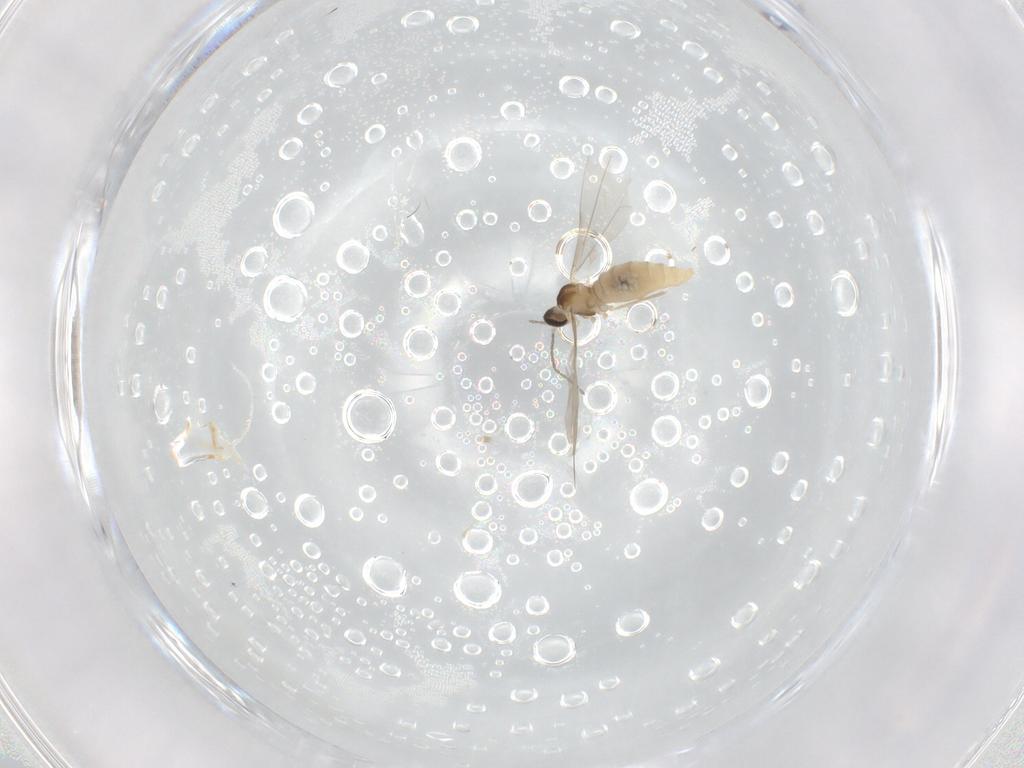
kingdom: Animalia
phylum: Arthropoda
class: Insecta
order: Diptera
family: Cecidomyiidae
